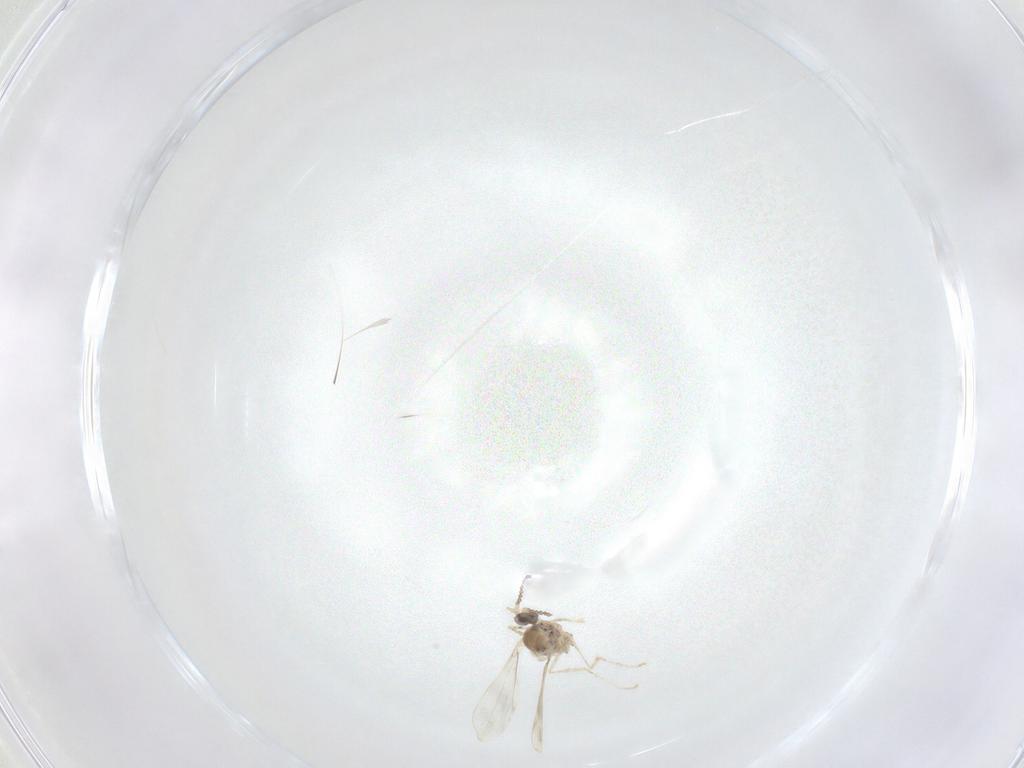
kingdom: Animalia
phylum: Arthropoda
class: Insecta
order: Diptera
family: Cecidomyiidae
